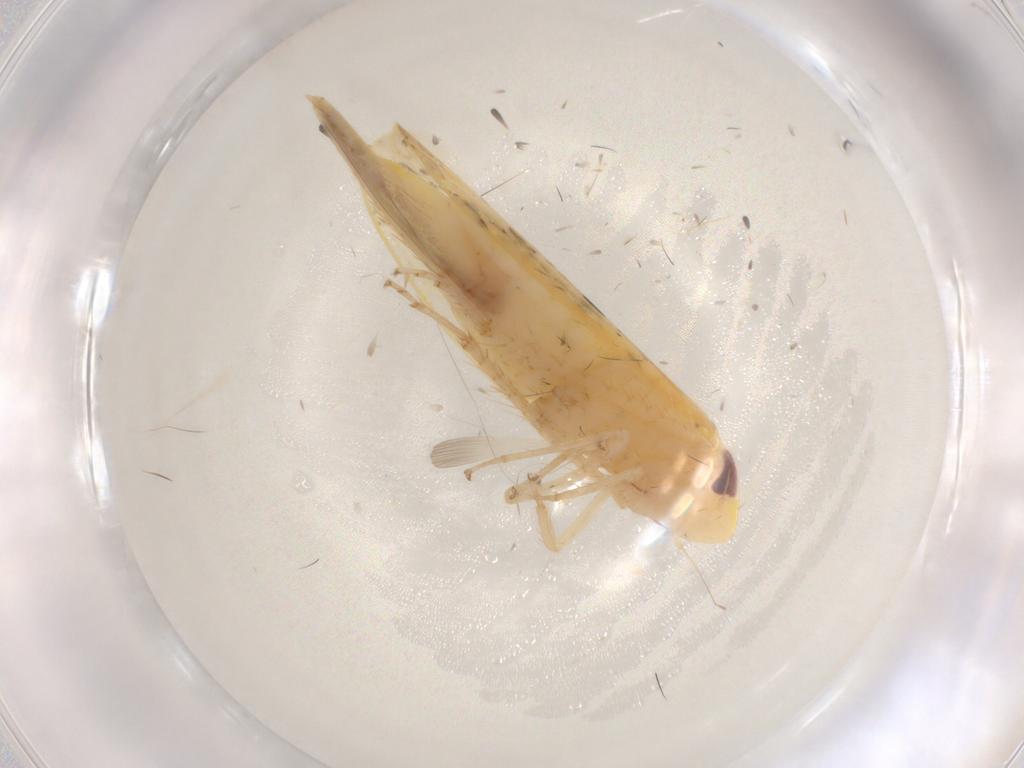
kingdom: Animalia
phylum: Arthropoda
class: Insecta
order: Hemiptera
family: Cicadellidae
